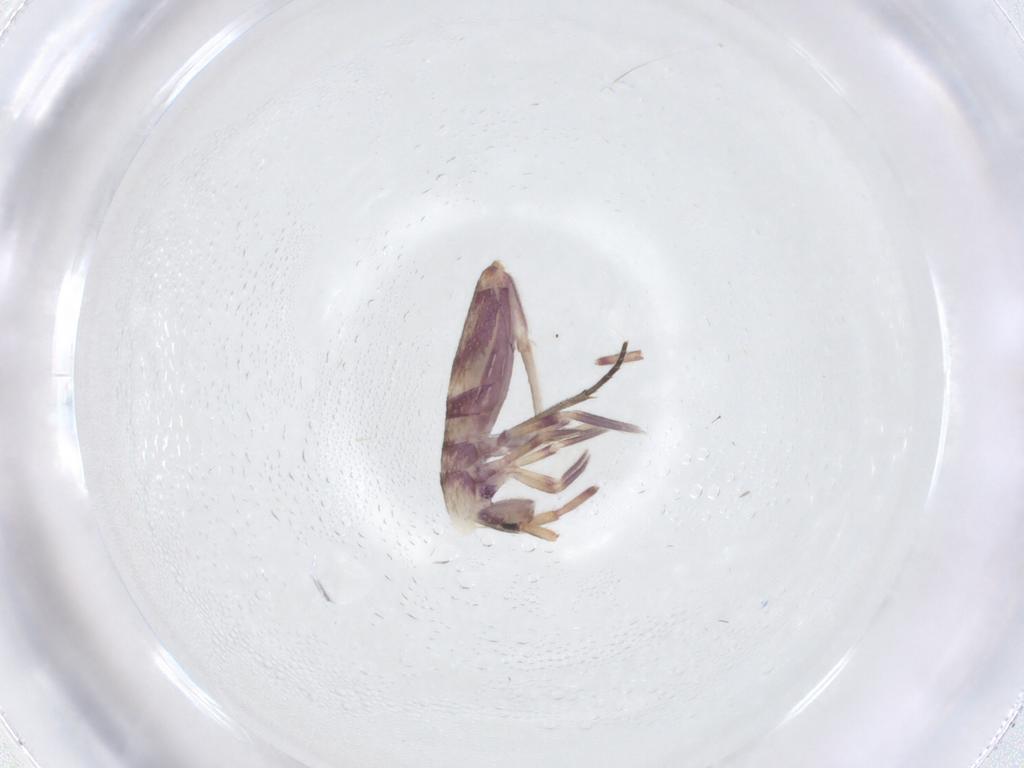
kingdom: Animalia
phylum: Arthropoda
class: Collembola
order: Entomobryomorpha
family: Entomobryidae
